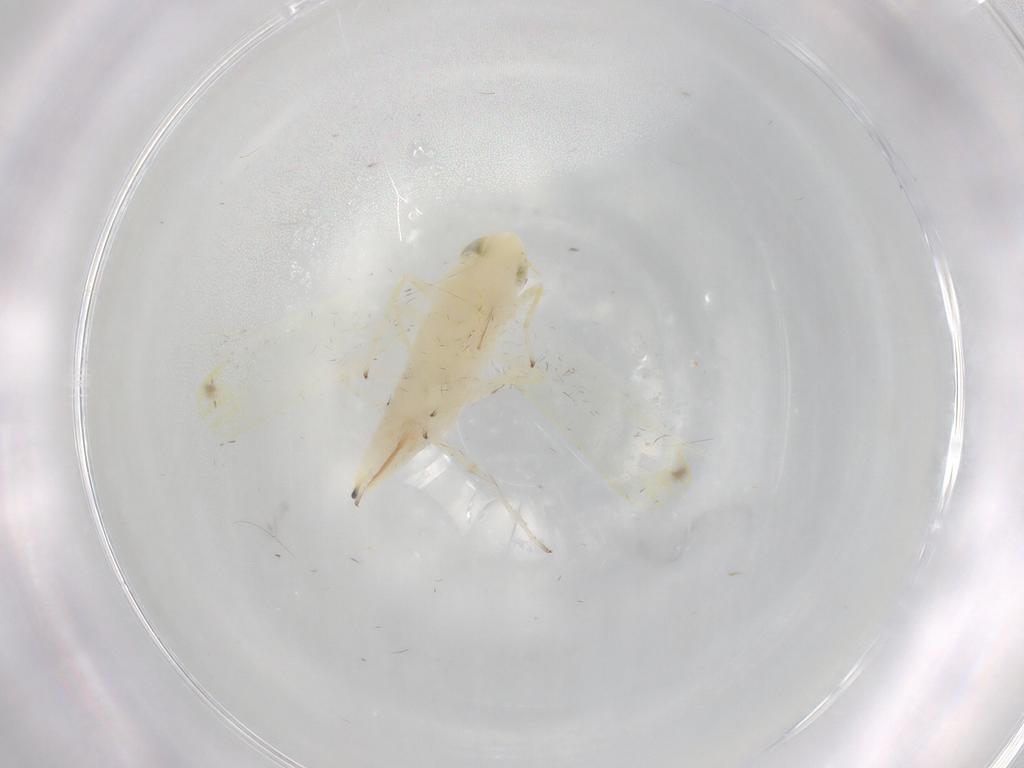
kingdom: Animalia
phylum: Arthropoda
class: Insecta
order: Hemiptera
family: Cicadellidae
